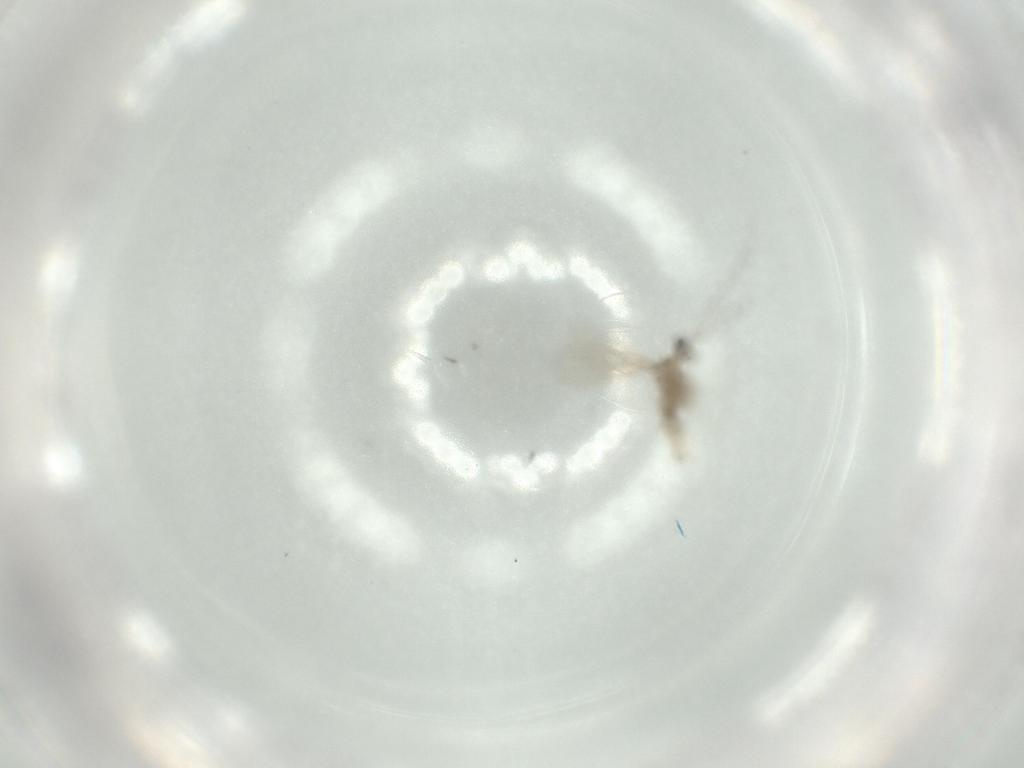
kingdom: Animalia
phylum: Arthropoda
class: Insecta
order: Diptera
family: Cecidomyiidae
